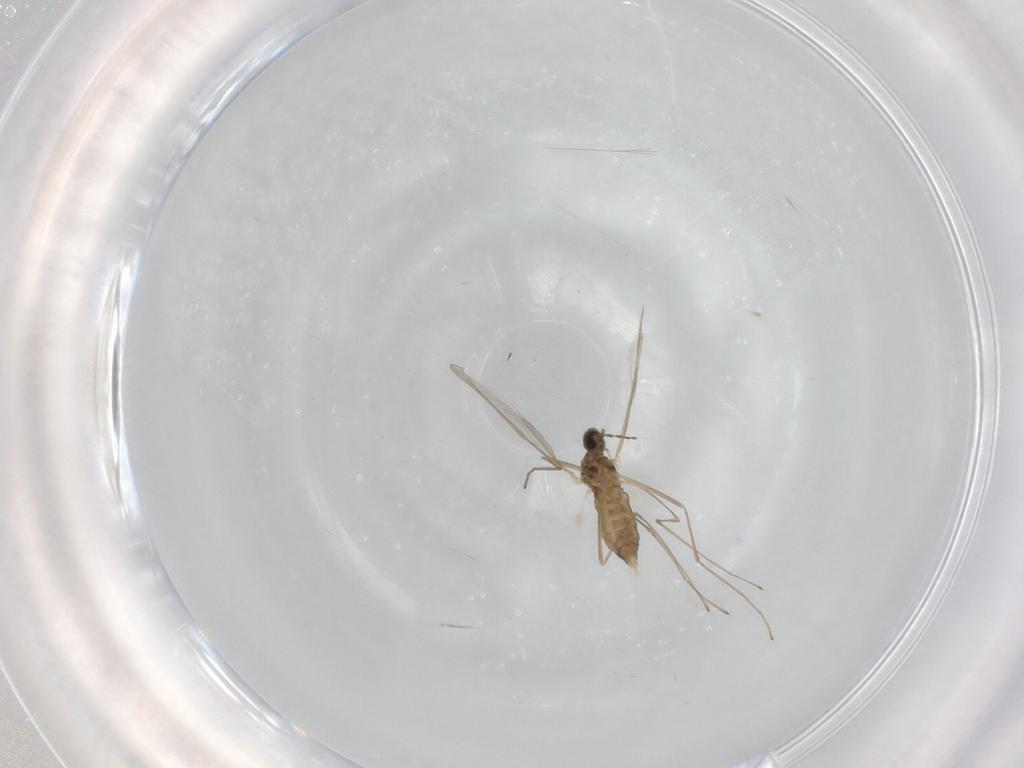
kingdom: Animalia
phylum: Arthropoda
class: Insecta
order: Diptera
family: Cecidomyiidae
